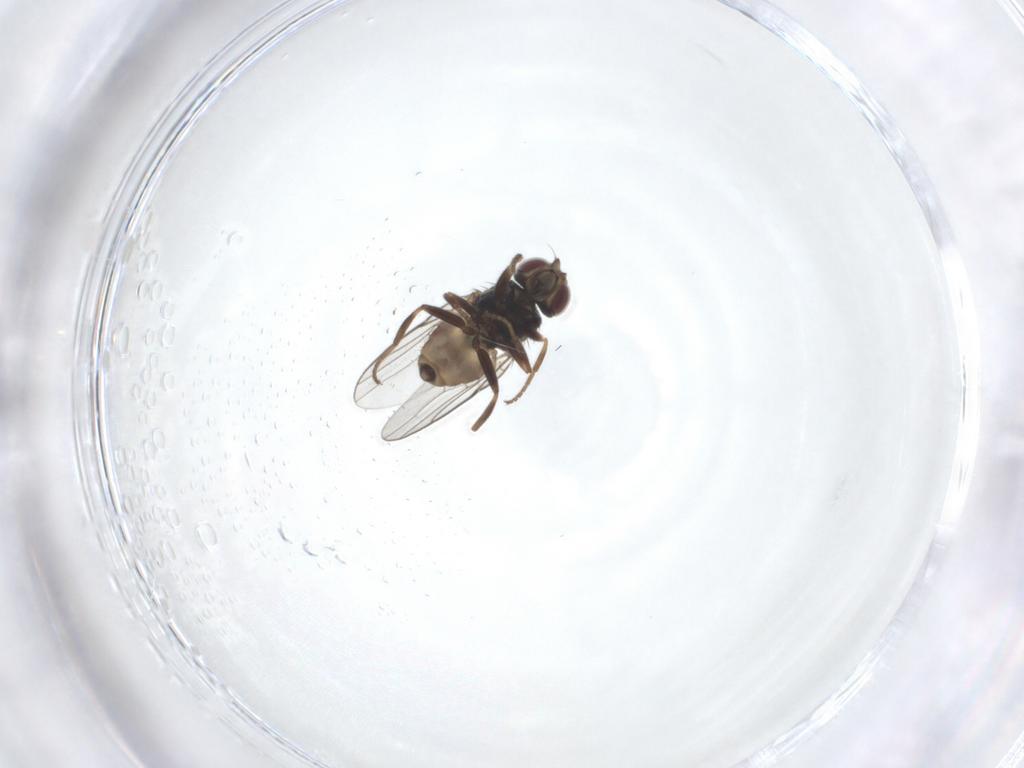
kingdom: Animalia
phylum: Arthropoda
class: Insecta
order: Diptera
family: Chloropidae
